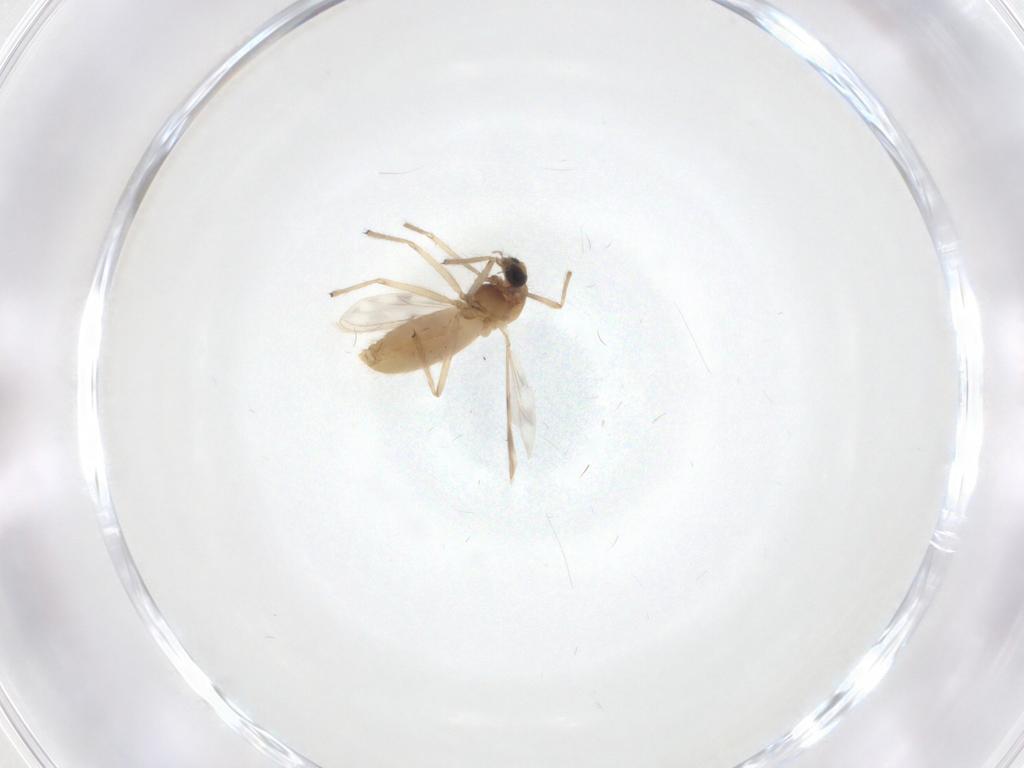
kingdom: Animalia
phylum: Arthropoda
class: Insecta
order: Diptera
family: Chironomidae
